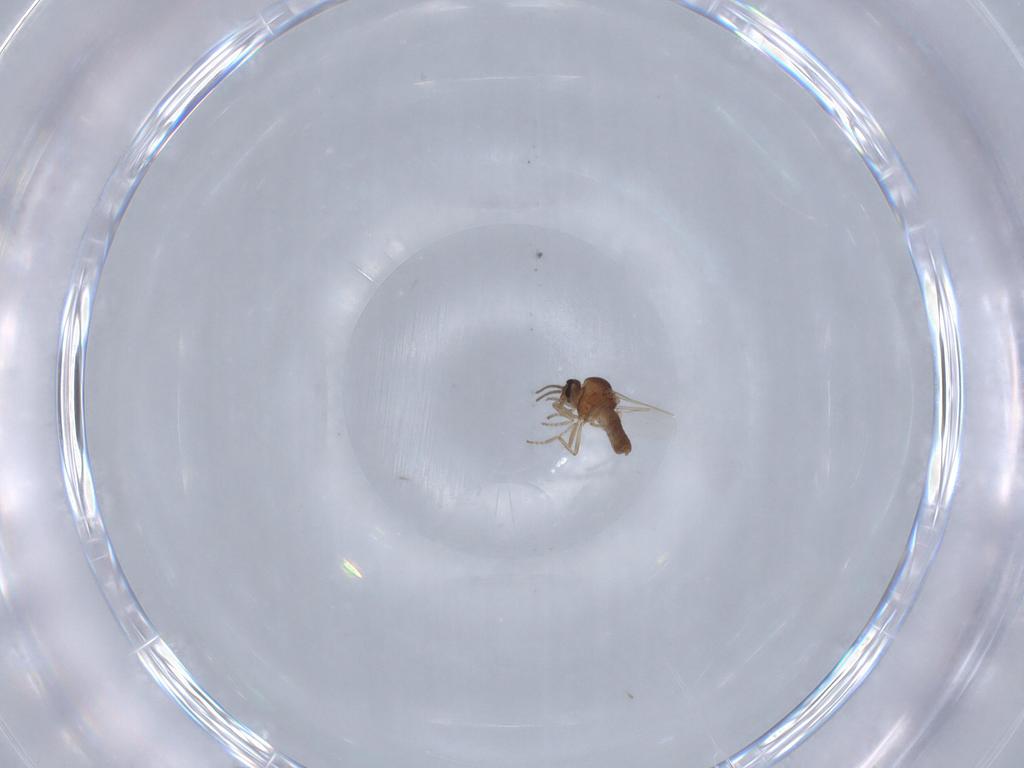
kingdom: Animalia
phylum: Arthropoda
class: Insecta
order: Diptera
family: Ceratopogonidae
